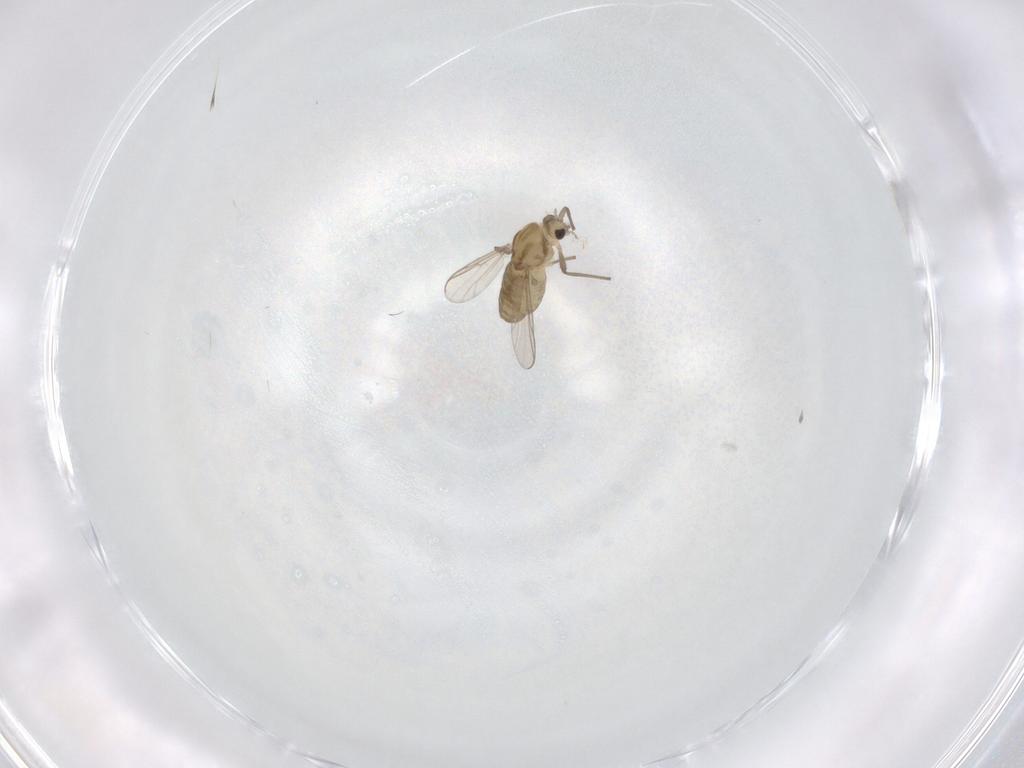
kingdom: Animalia
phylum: Arthropoda
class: Insecta
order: Diptera
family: Chironomidae
